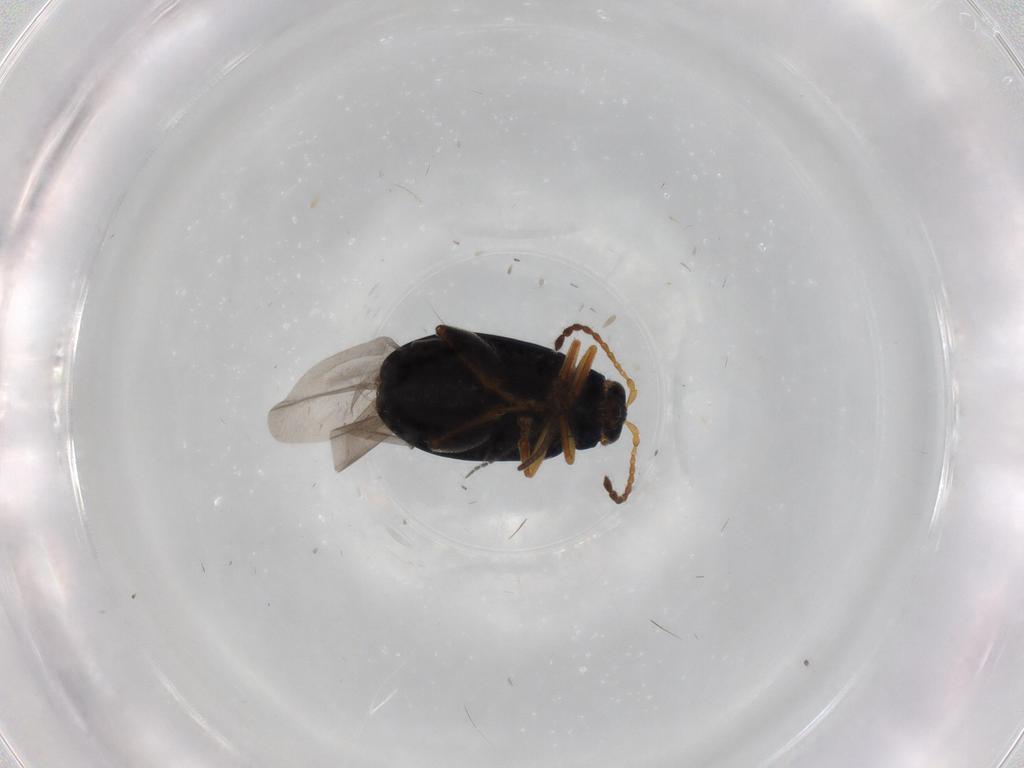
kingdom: Animalia
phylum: Arthropoda
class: Insecta
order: Coleoptera
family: Chrysomelidae
